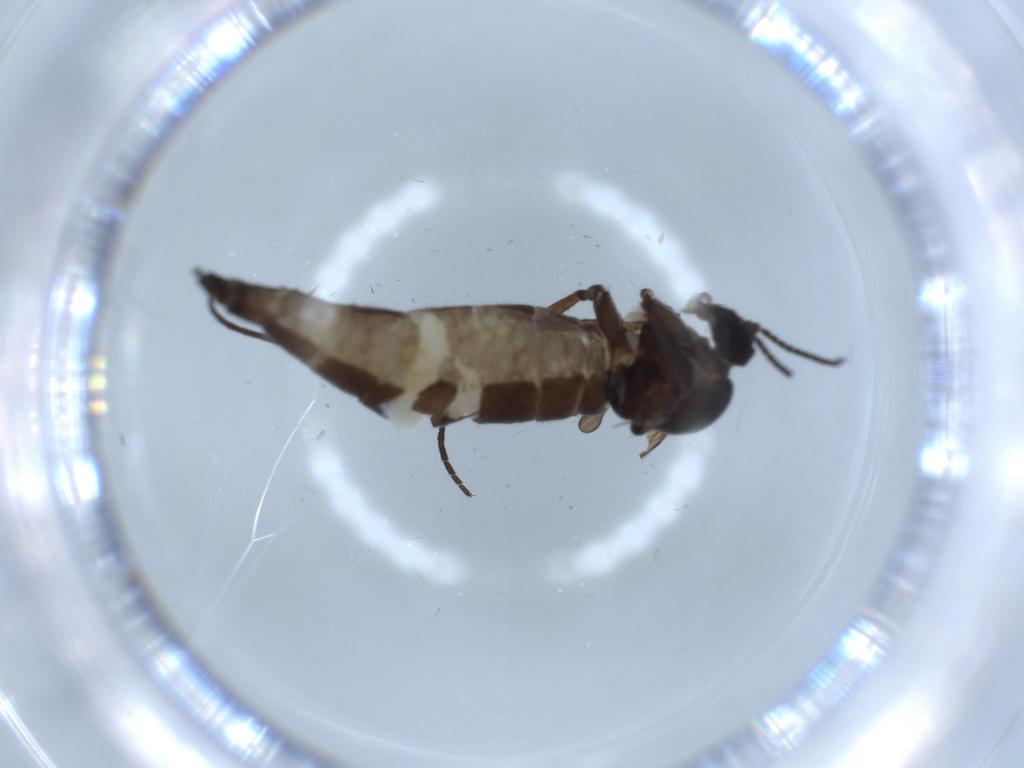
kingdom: Animalia
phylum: Arthropoda
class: Insecta
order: Diptera
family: Sciaridae
